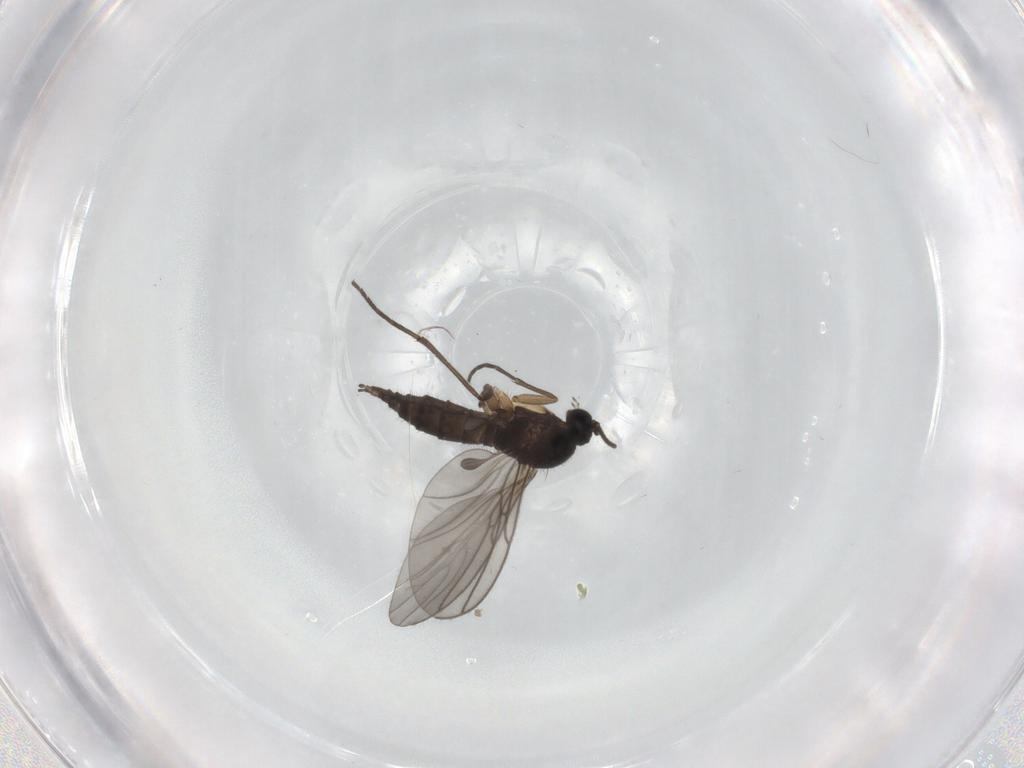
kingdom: Animalia
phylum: Arthropoda
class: Insecta
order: Diptera
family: Sciaridae
